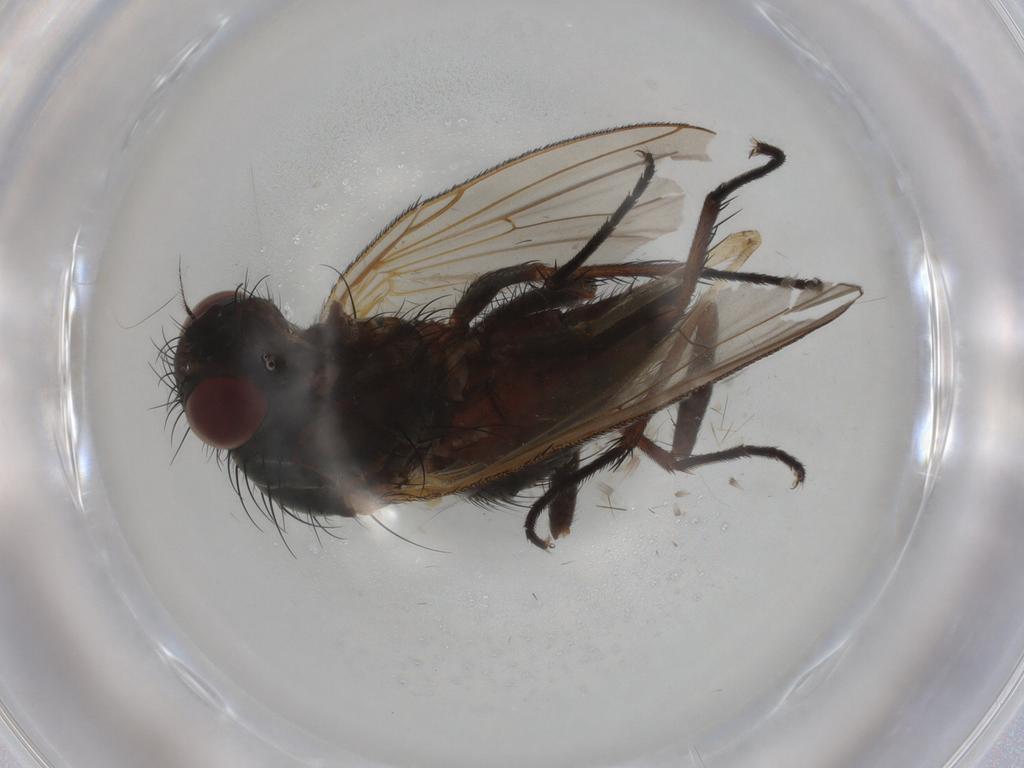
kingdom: Animalia
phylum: Arthropoda
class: Insecta
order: Diptera
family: Anthomyiidae
